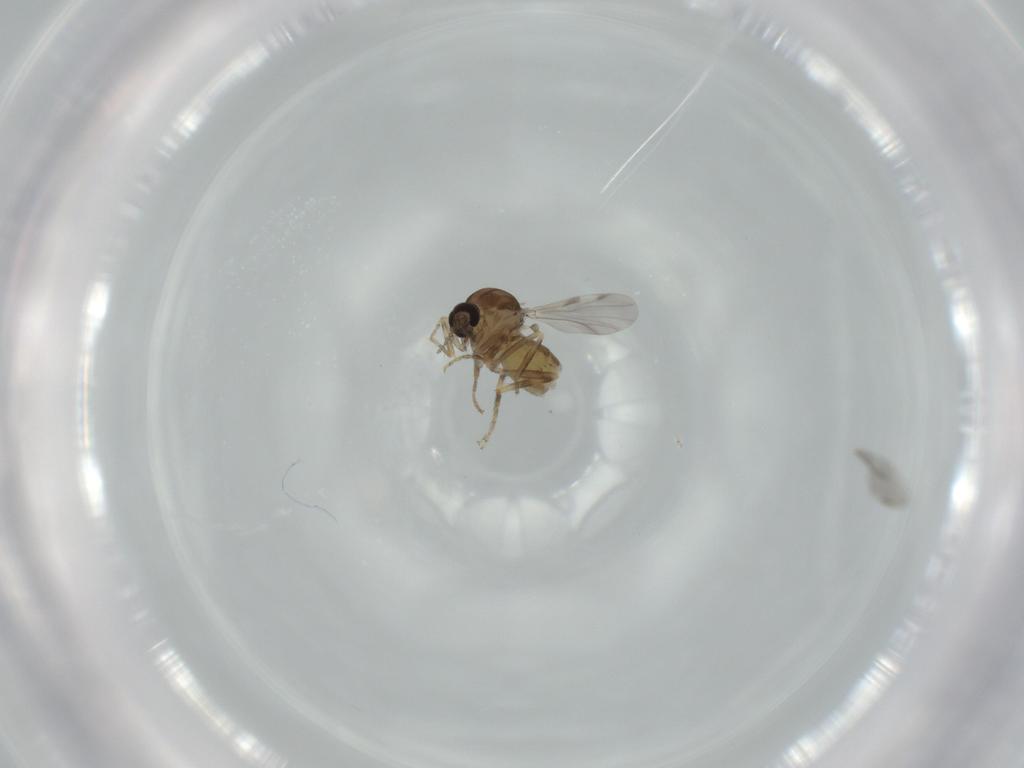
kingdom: Animalia
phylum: Arthropoda
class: Insecta
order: Diptera
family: Ceratopogonidae
